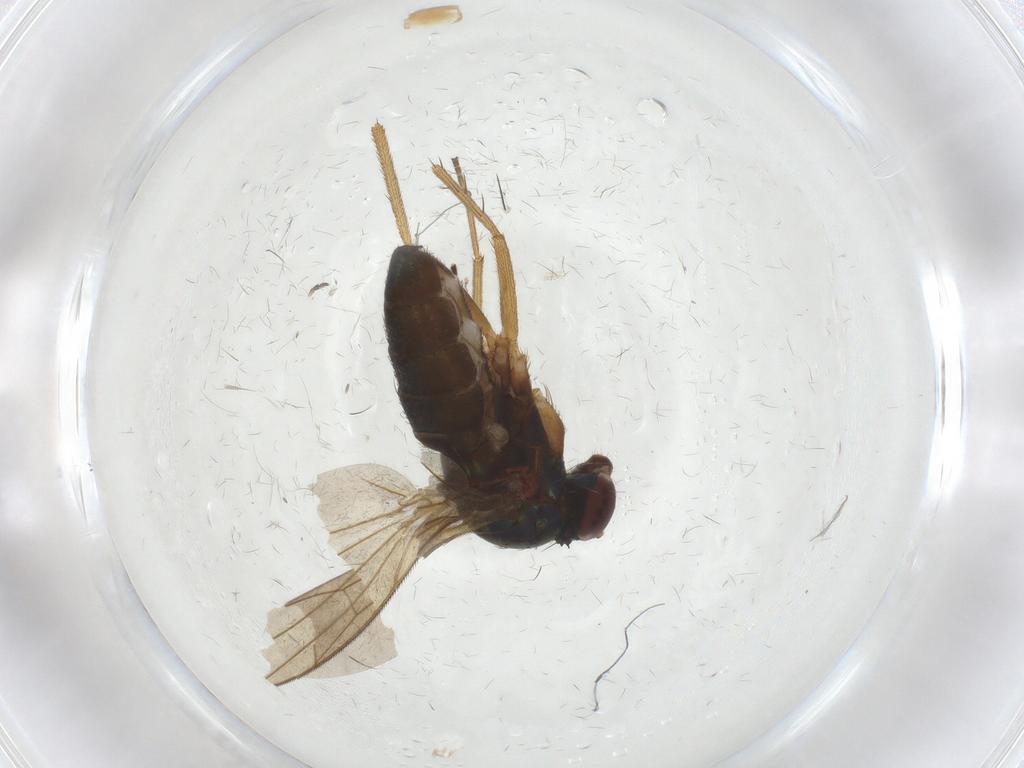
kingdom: Animalia
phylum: Arthropoda
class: Insecta
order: Diptera
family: Dolichopodidae
